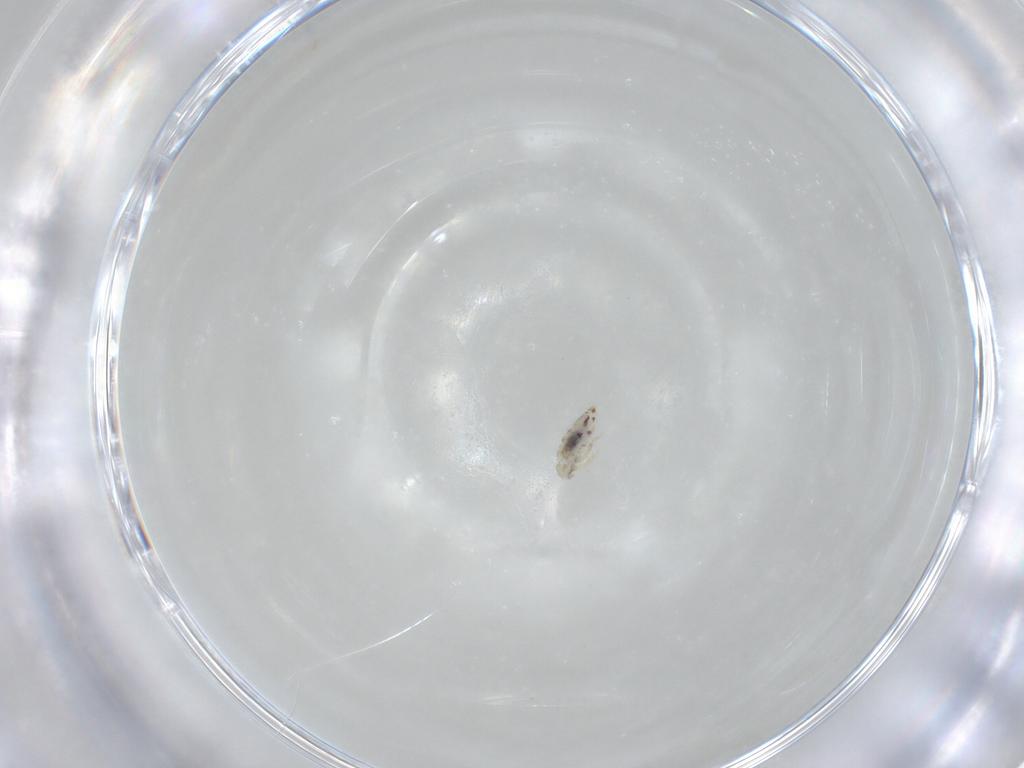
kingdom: Animalia
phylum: Arthropoda
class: Collembola
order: Entomobryomorpha
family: Entomobryidae
